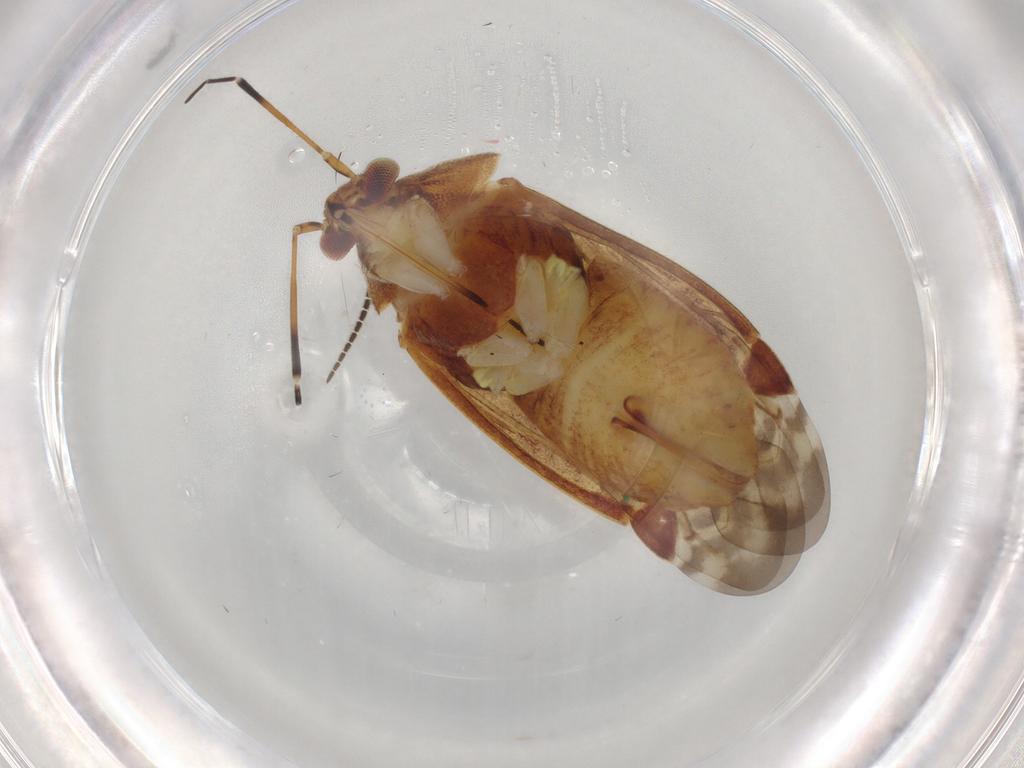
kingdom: Animalia
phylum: Arthropoda
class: Insecta
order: Hemiptera
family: Miridae
